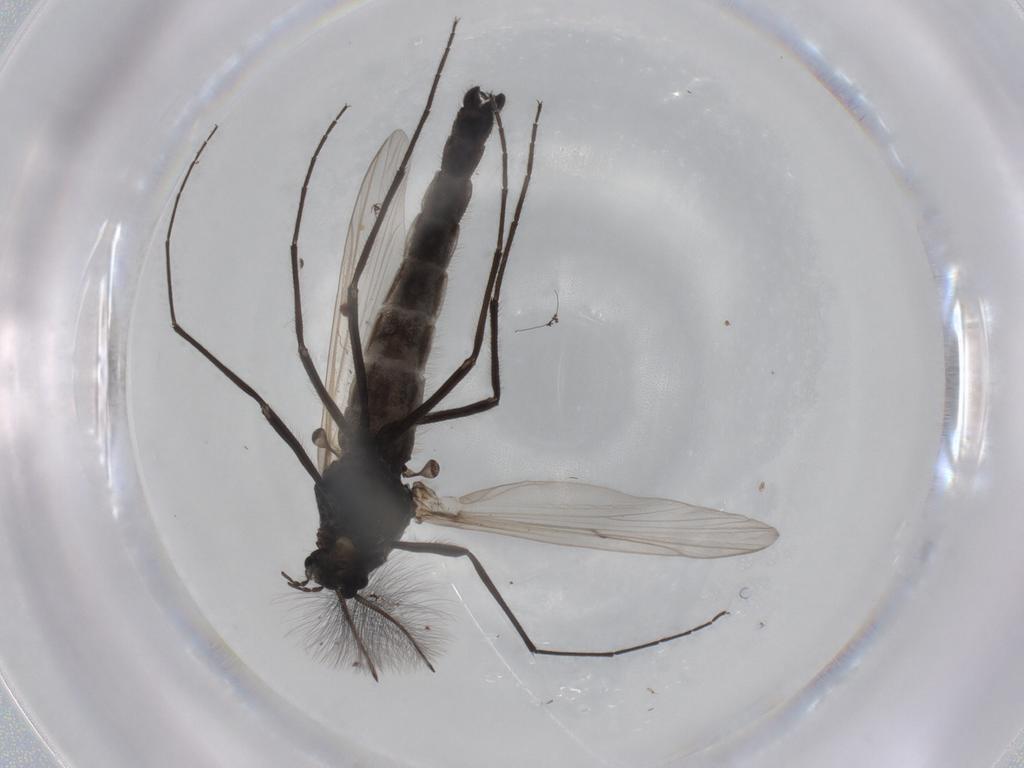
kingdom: Animalia
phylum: Arthropoda
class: Insecta
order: Diptera
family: Chironomidae
